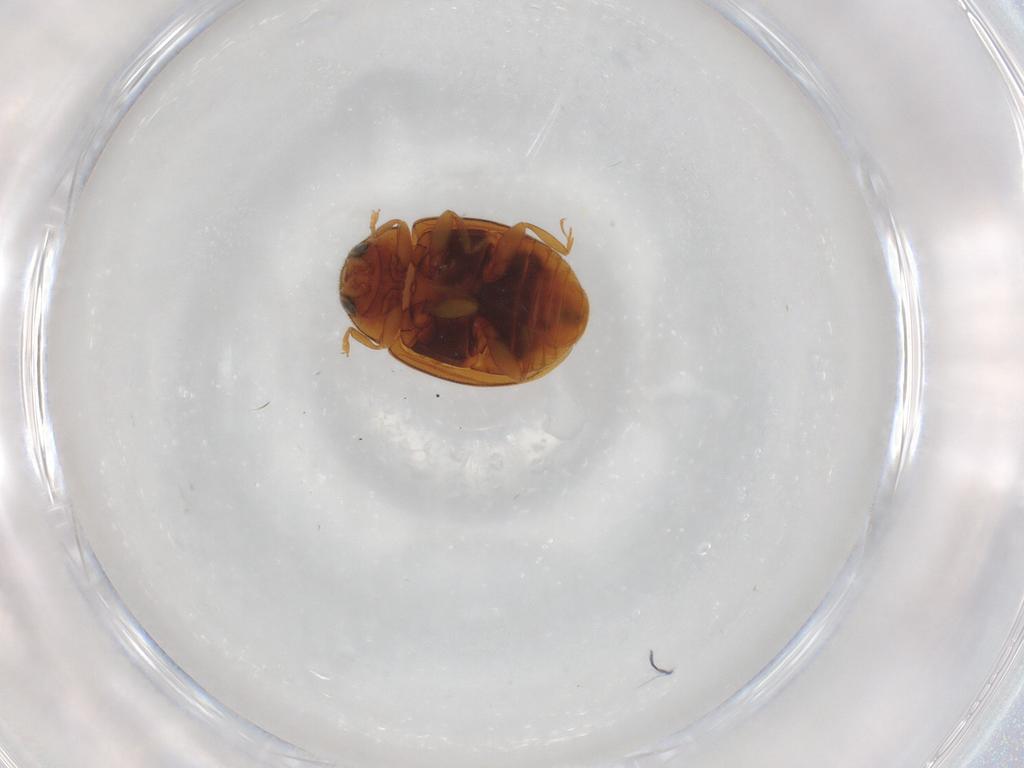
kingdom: Animalia
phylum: Arthropoda
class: Insecta
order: Coleoptera
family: Coccinellidae
